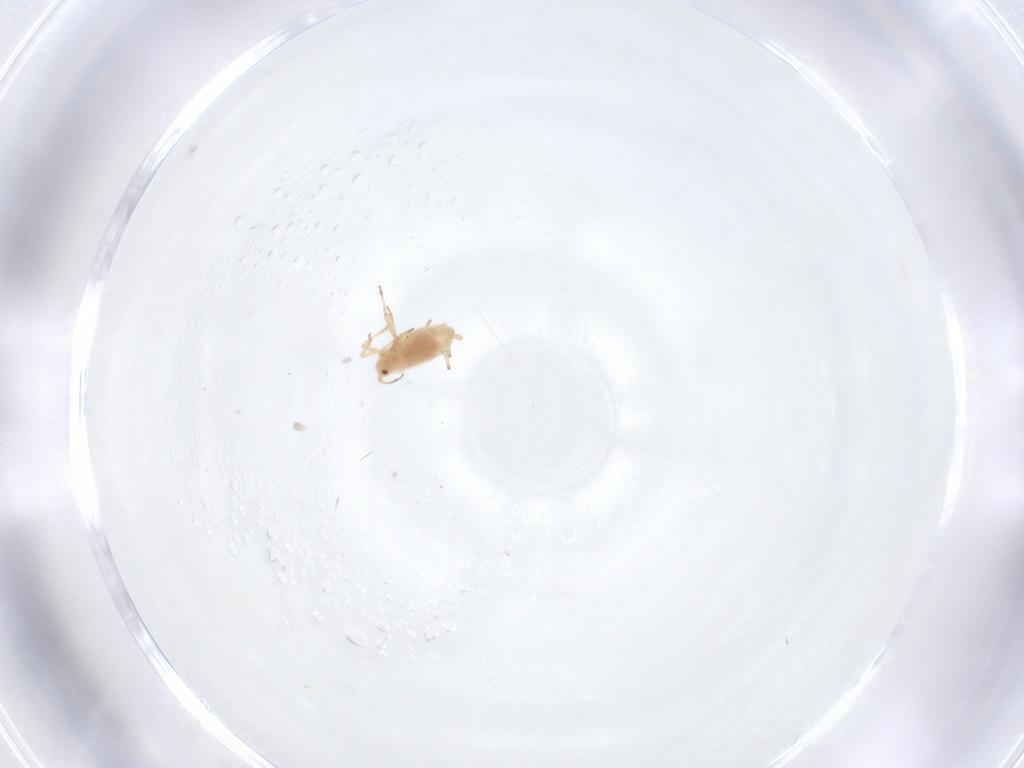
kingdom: Animalia
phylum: Arthropoda
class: Insecta
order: Hemiptera
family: Aphididae
